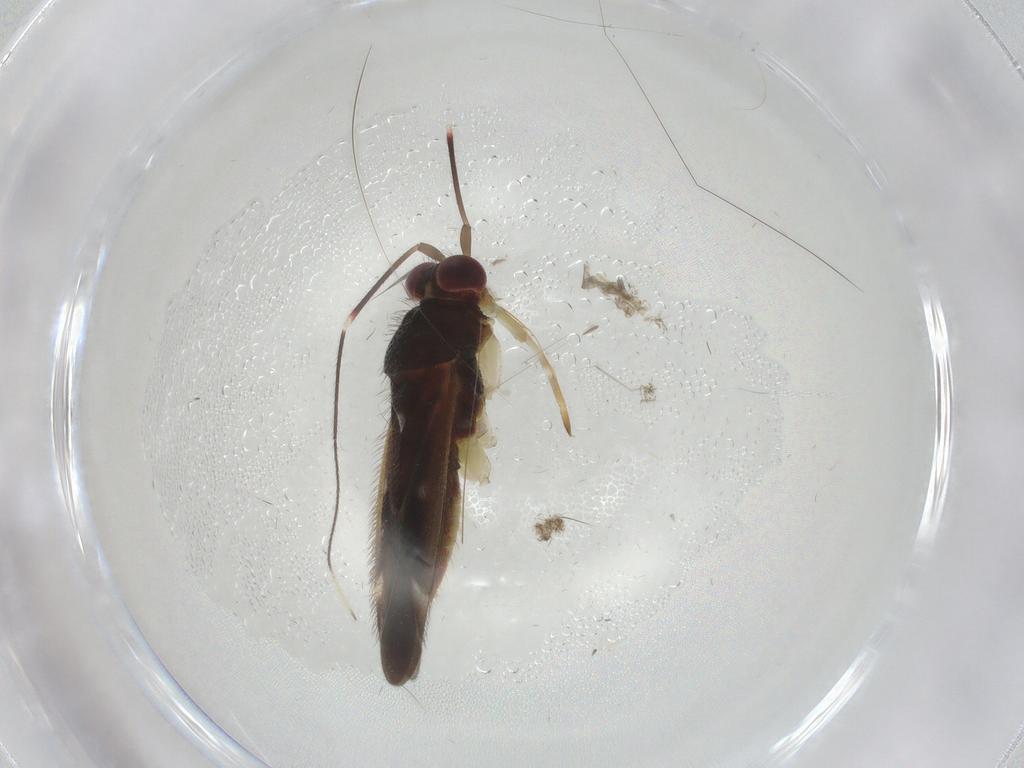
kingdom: Animalia
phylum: Arthropoda
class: Insecta
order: Hemiptera
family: Miridae
